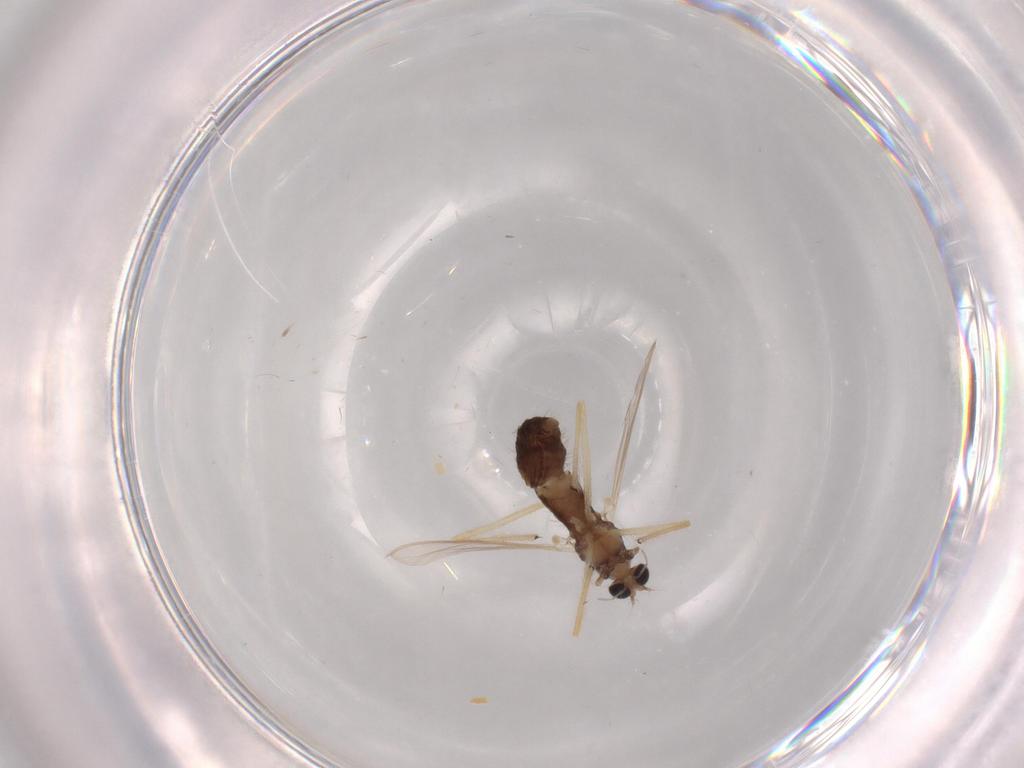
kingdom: Animalia
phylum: Arthropoda
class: Insecta
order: Diptera
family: Chironomidae
